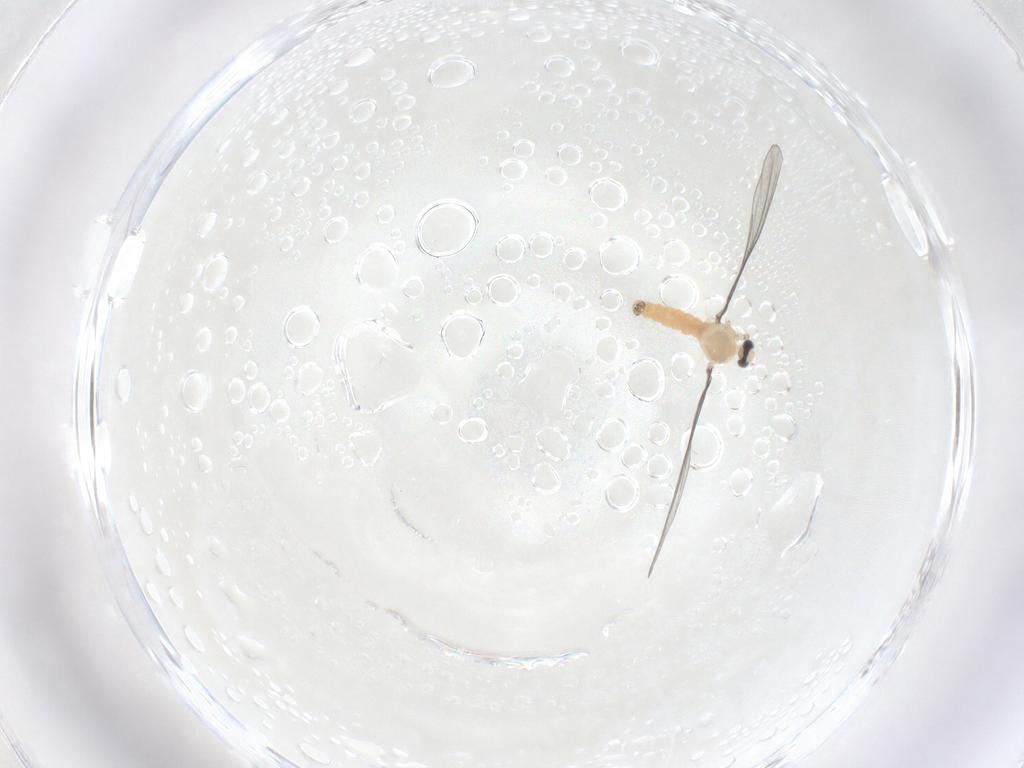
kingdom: Animalia
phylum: Arthropoda
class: Insecta
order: Diptera
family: Cecidomyiidae
